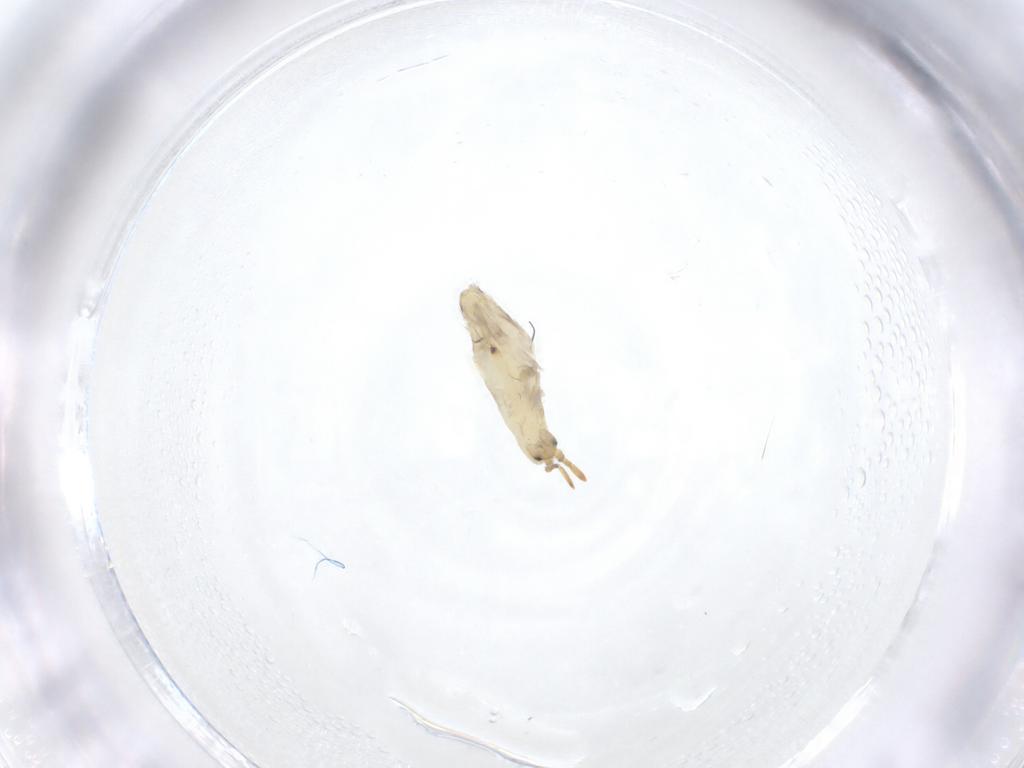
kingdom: Animalia
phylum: Arthropoda
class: Collembola
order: Entomobryomorpha
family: Entomobryidae
